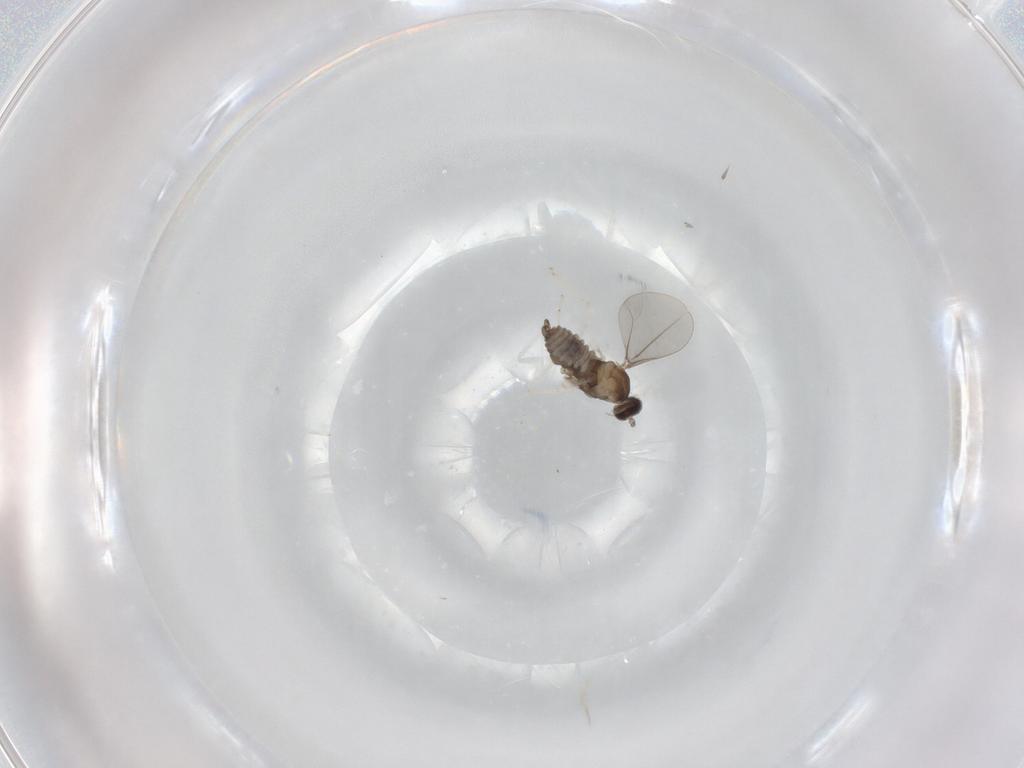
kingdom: Animalia
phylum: Arthropoda
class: Insecta
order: Diptera
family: Cecidomyiidae
